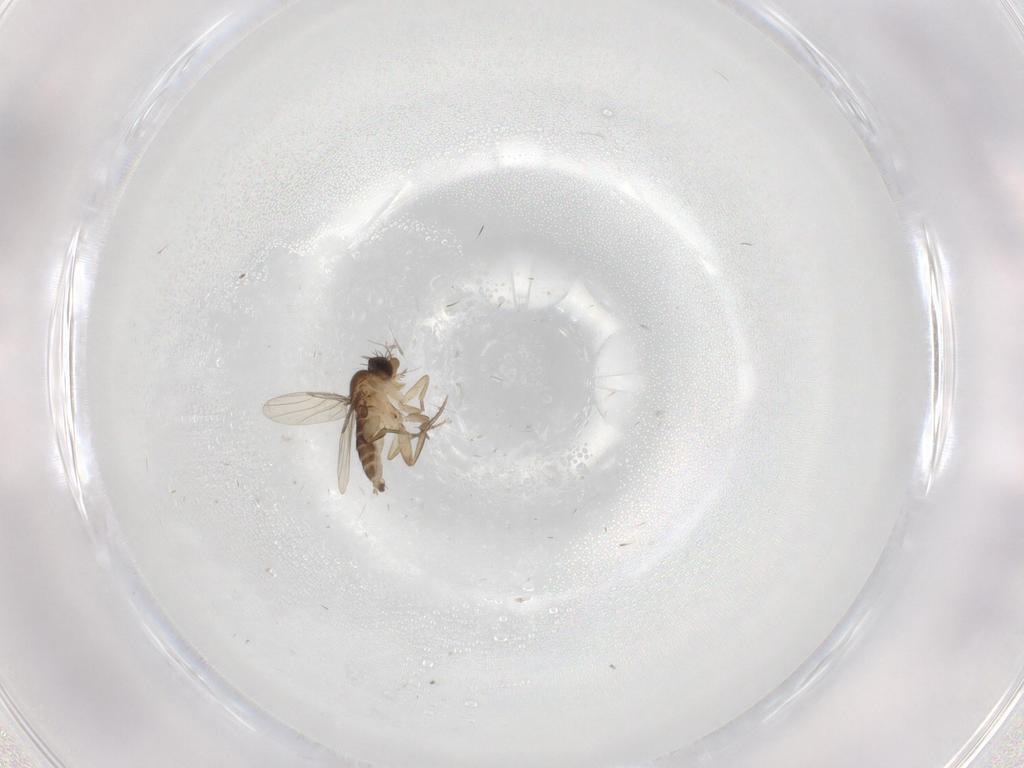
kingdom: Animalia
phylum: Arthropoda
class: Insecta
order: Diptera
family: Phoridae
